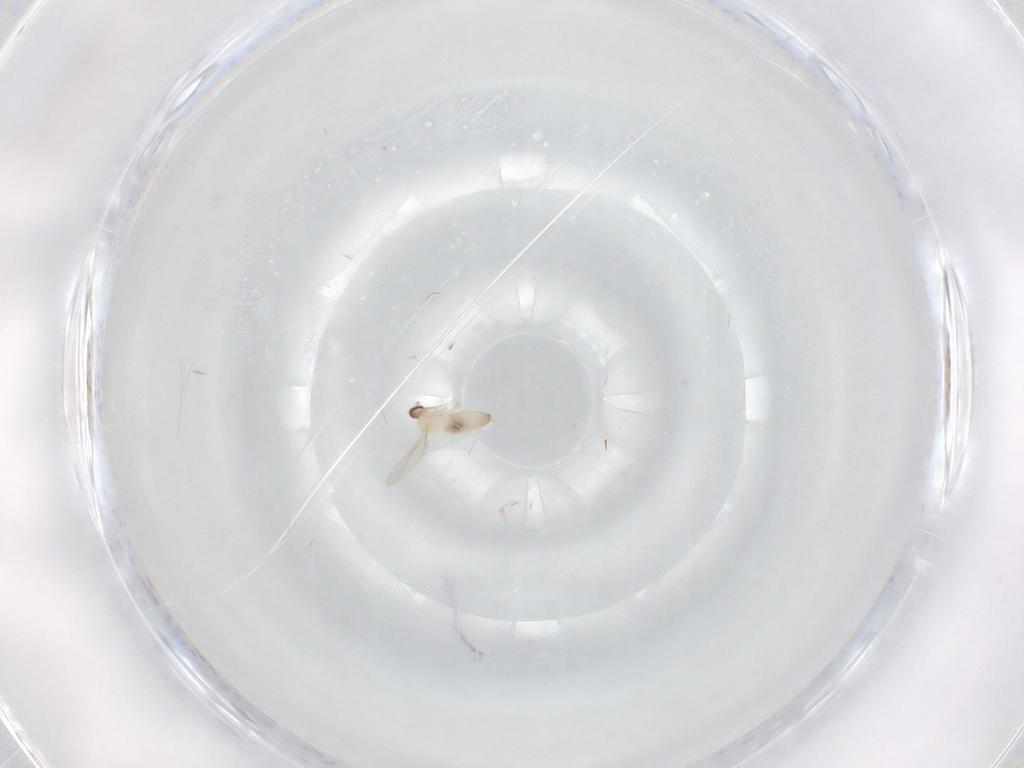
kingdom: Animalia
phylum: Arthropoda
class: Insecta
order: Diptera
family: Cecidomyiidae
